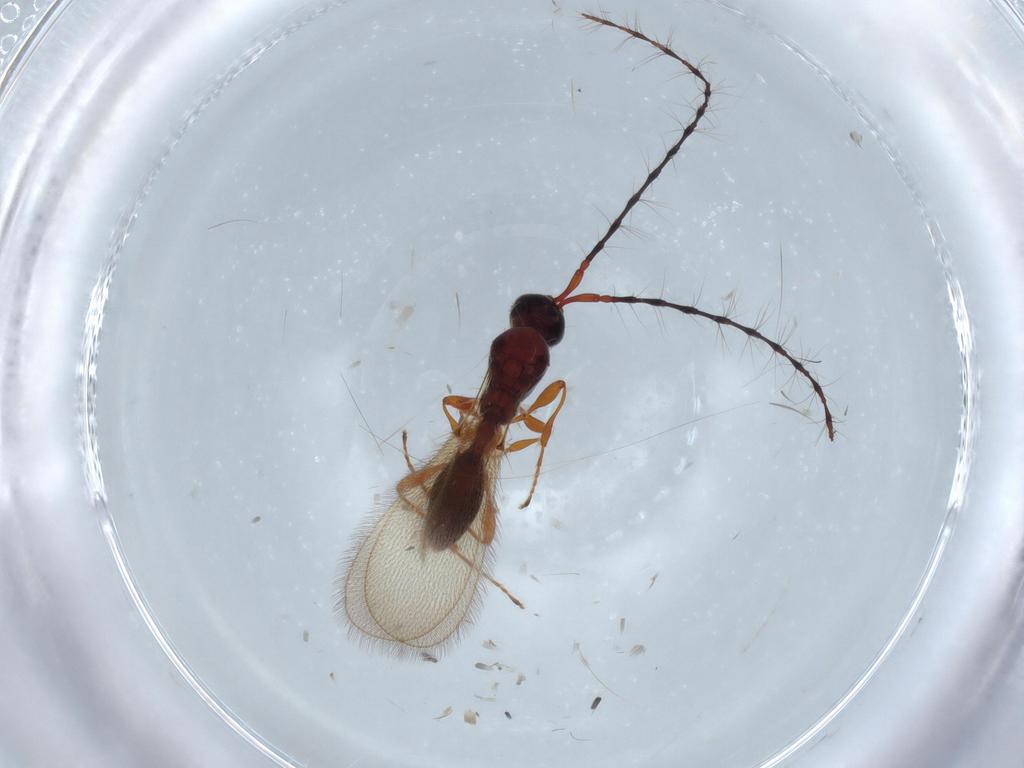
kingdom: Animalia
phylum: Arthropoda
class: Insecta
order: Hymenoptera
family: Diapriidae
